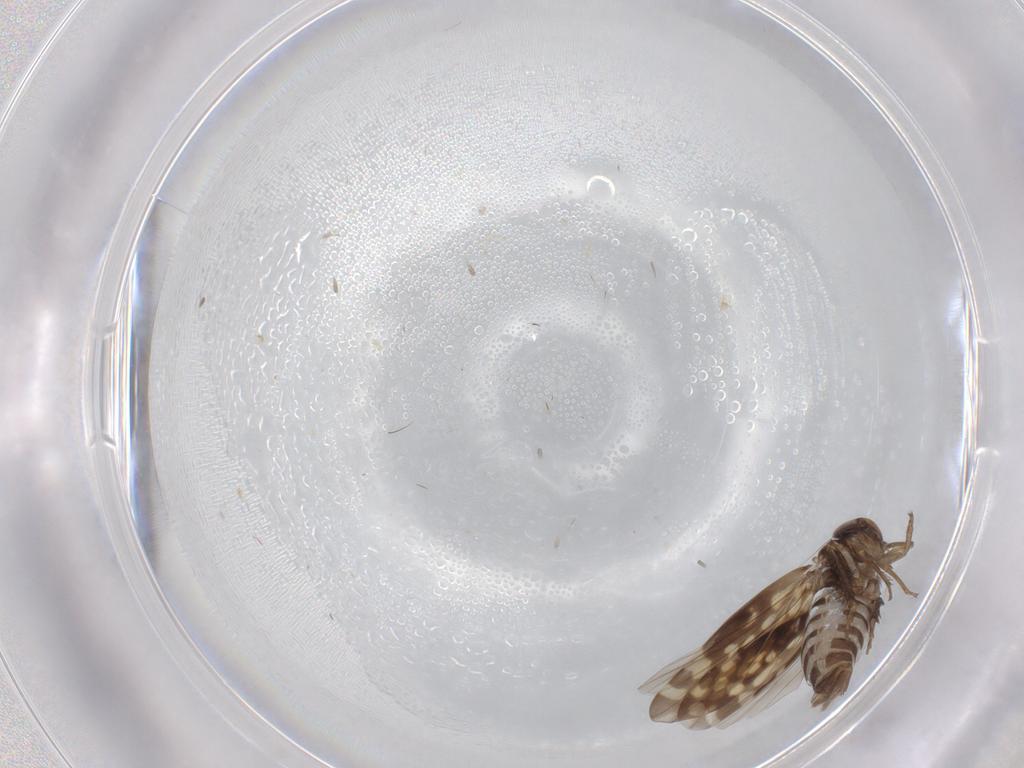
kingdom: Animalia
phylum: Arthropoda
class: Insecta
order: Hemiptera
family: Cicadellidae
